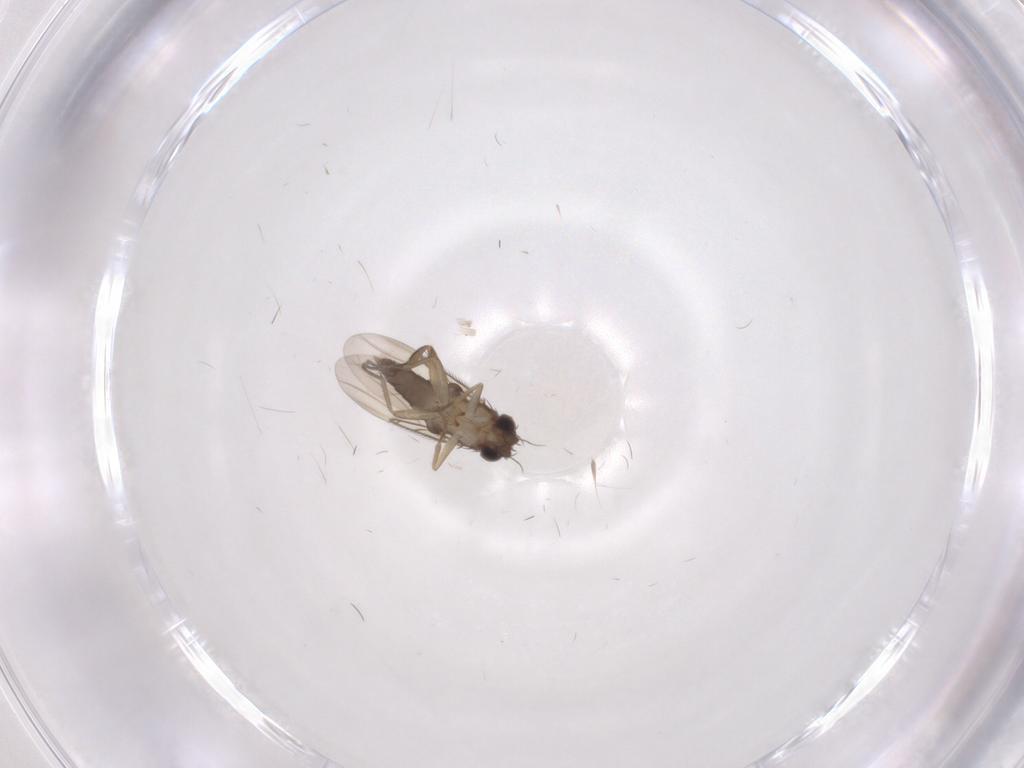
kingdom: Animalia
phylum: Arthropoda
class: Insecta
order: Diptera
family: Phoridae
